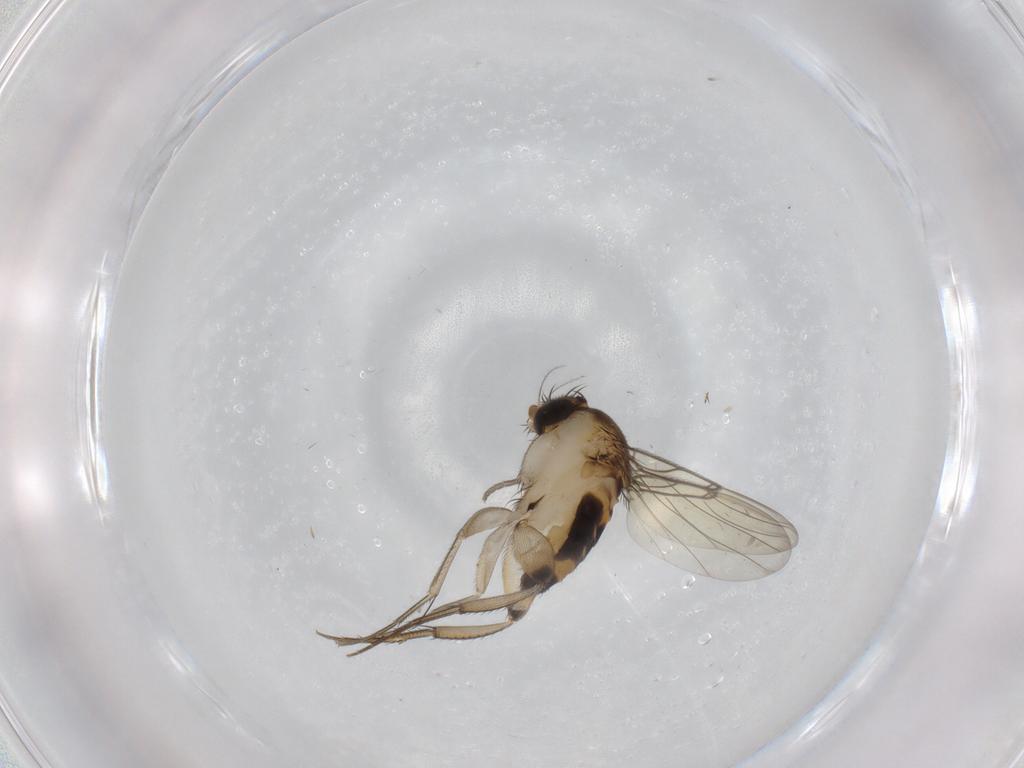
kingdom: Animalia
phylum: Arthropoda
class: Insecta
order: Diptera
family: Phoridae
